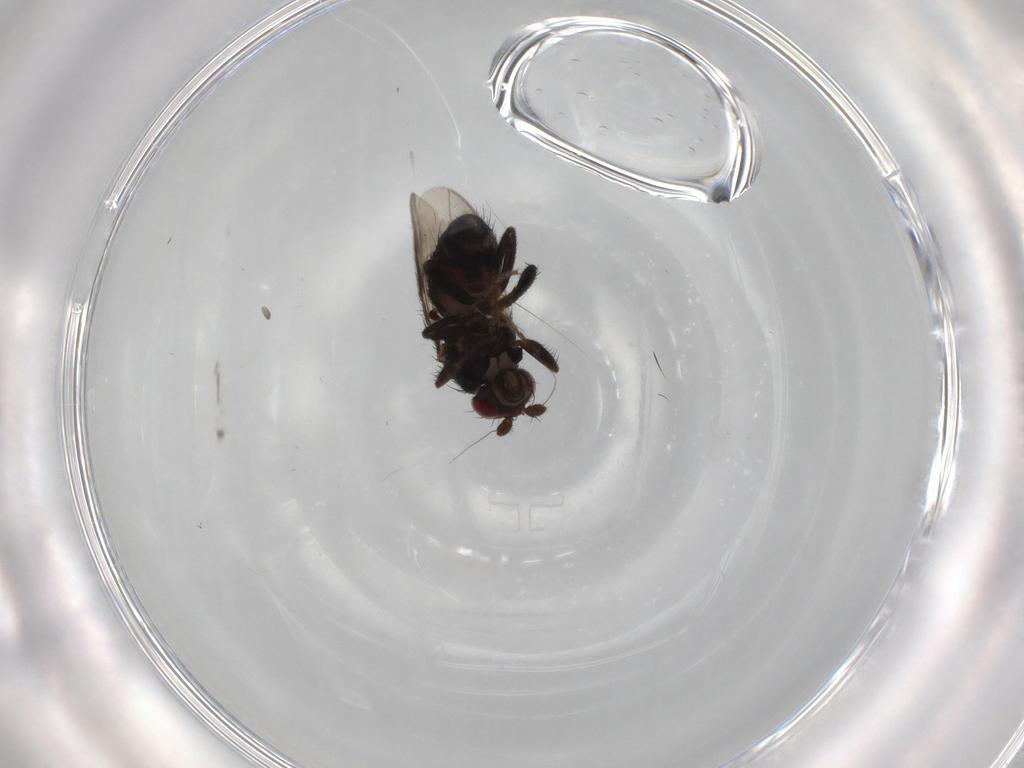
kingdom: Animalia
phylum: Arthropoda
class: Insecta
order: Diptera
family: Sphaeroceridae
